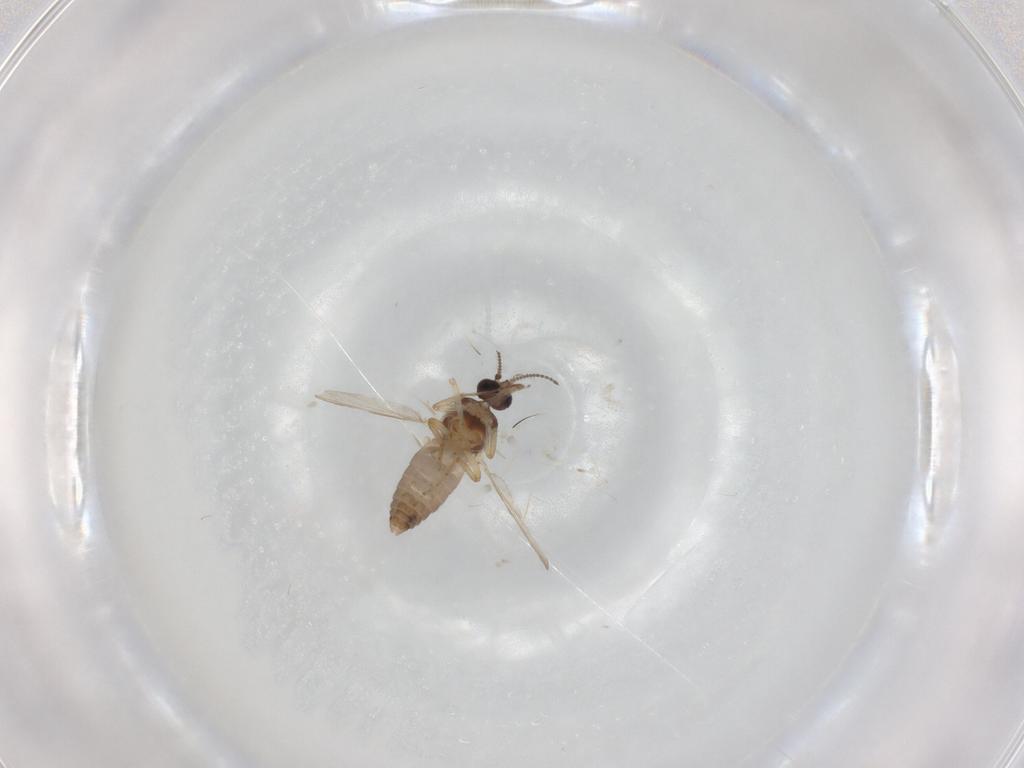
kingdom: Animalia
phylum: Arthropoda
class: Insecta
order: Diptera
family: Ceratopogonidae
